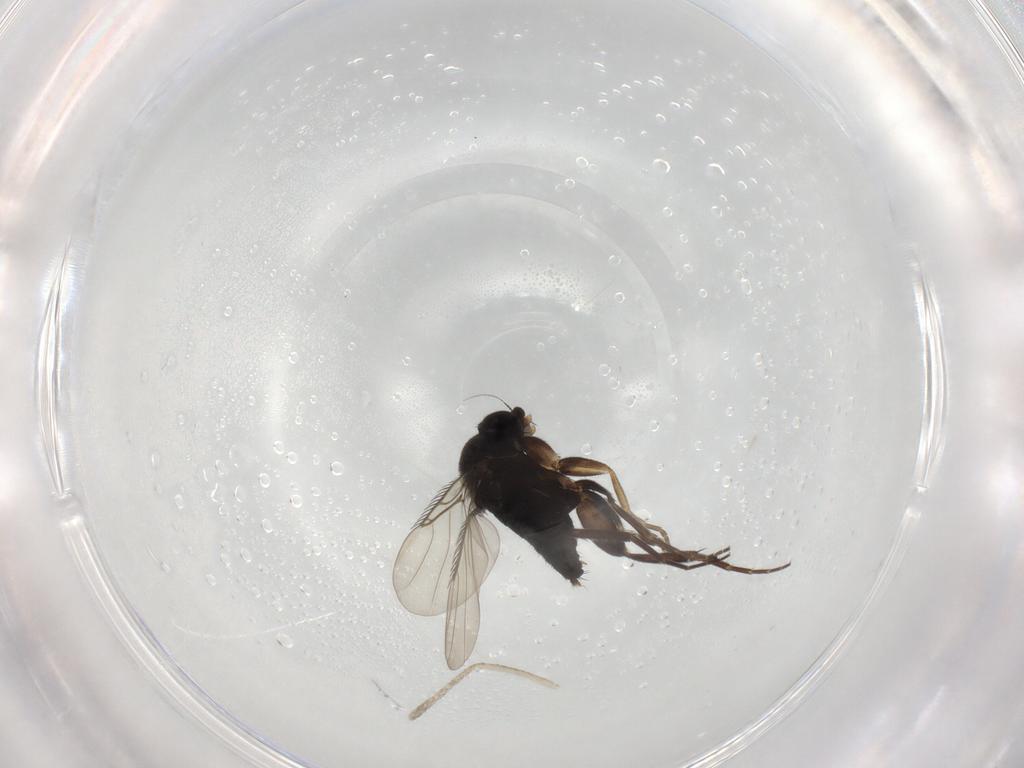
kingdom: Animalia
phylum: Arthropoda
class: Insecta
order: Diptera
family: Phoridae
